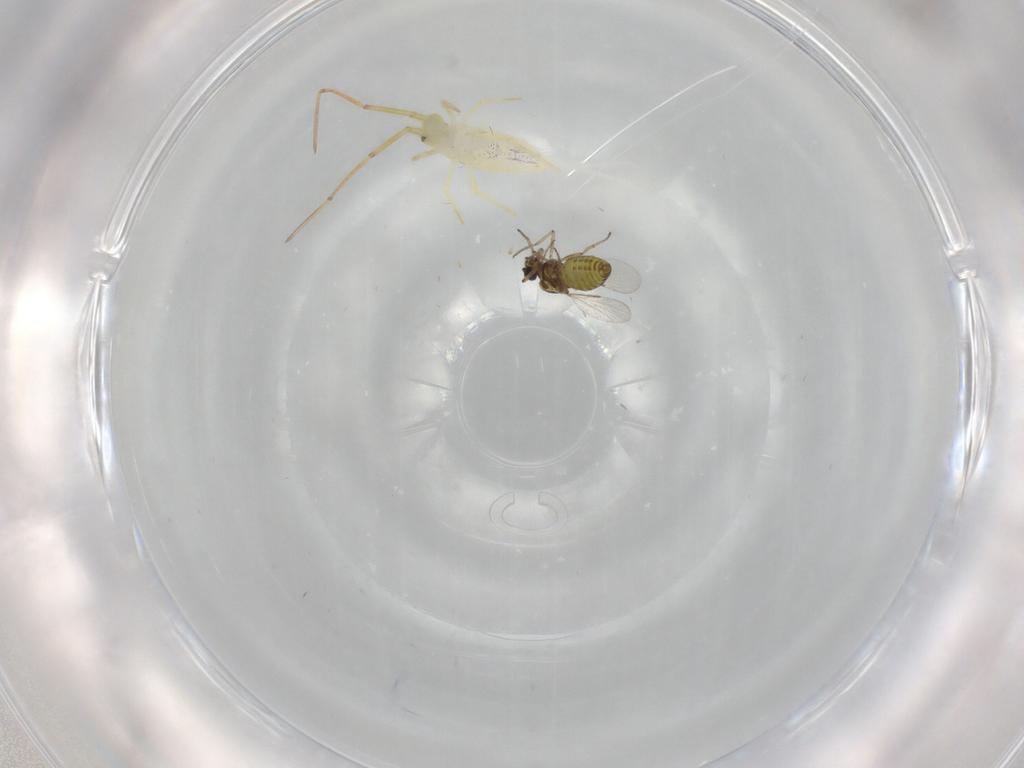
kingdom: Animalia
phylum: Arthropoda
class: Insecta
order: Diptera
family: Ceratopogonidae
